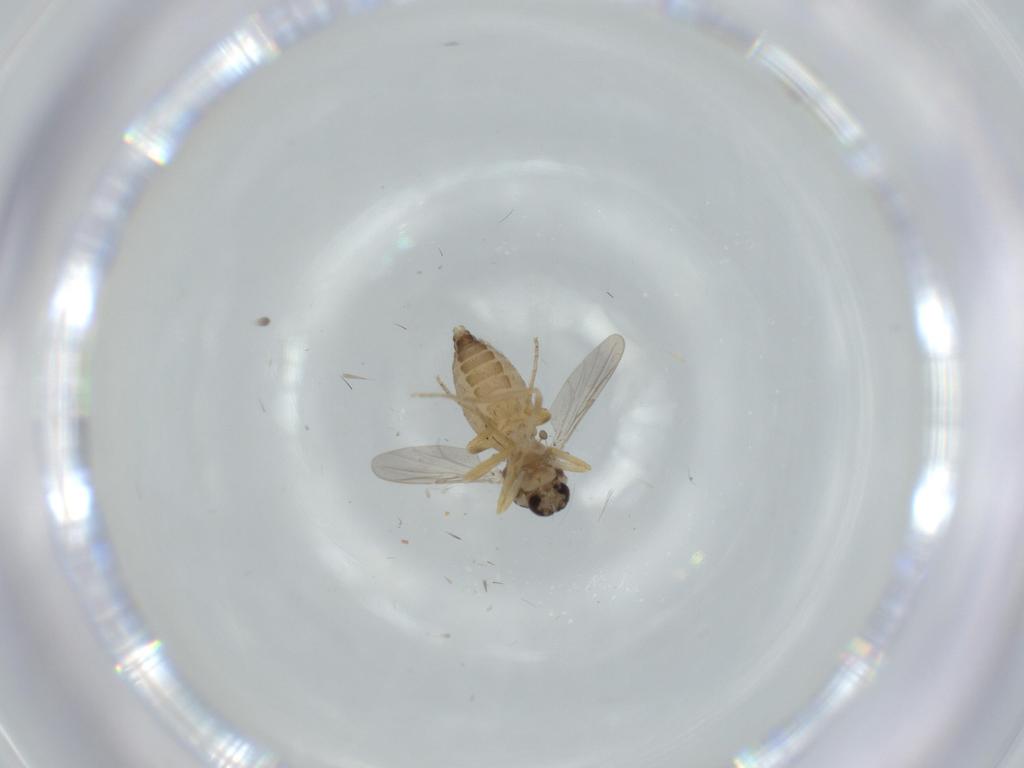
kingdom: Animalia
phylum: Arthropoda
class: Insecta
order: Diptera
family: Ceratopogonidae
